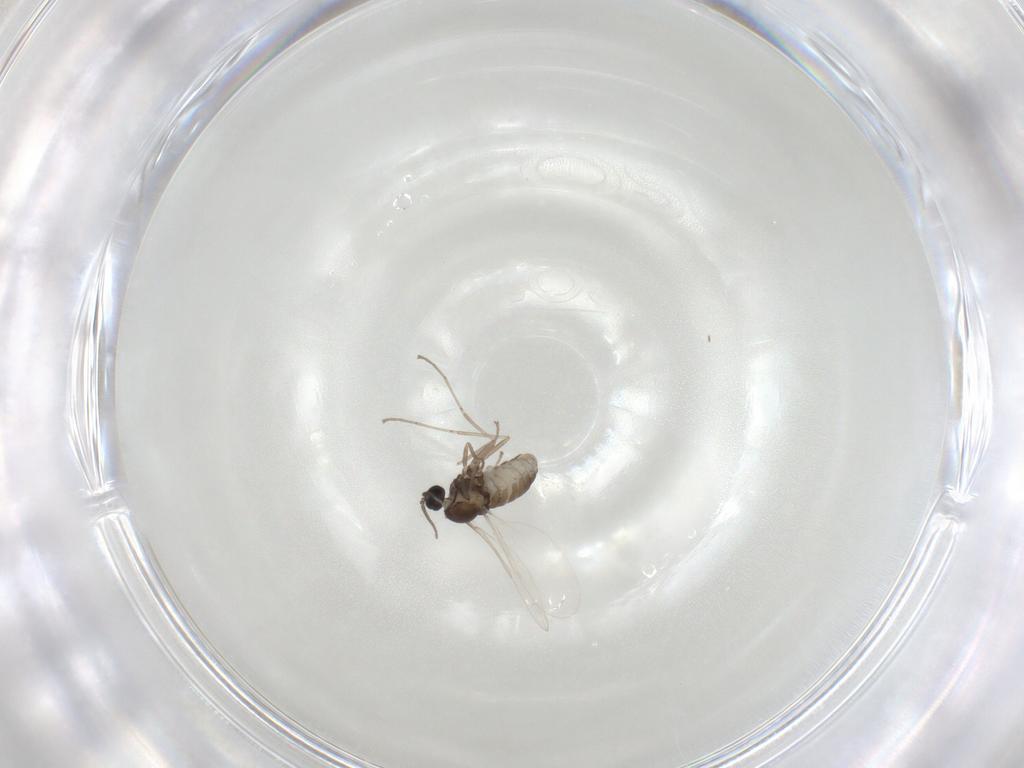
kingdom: Animalia
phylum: Arthropoda
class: Insecta
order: Diptera
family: Cecidomyiidae
